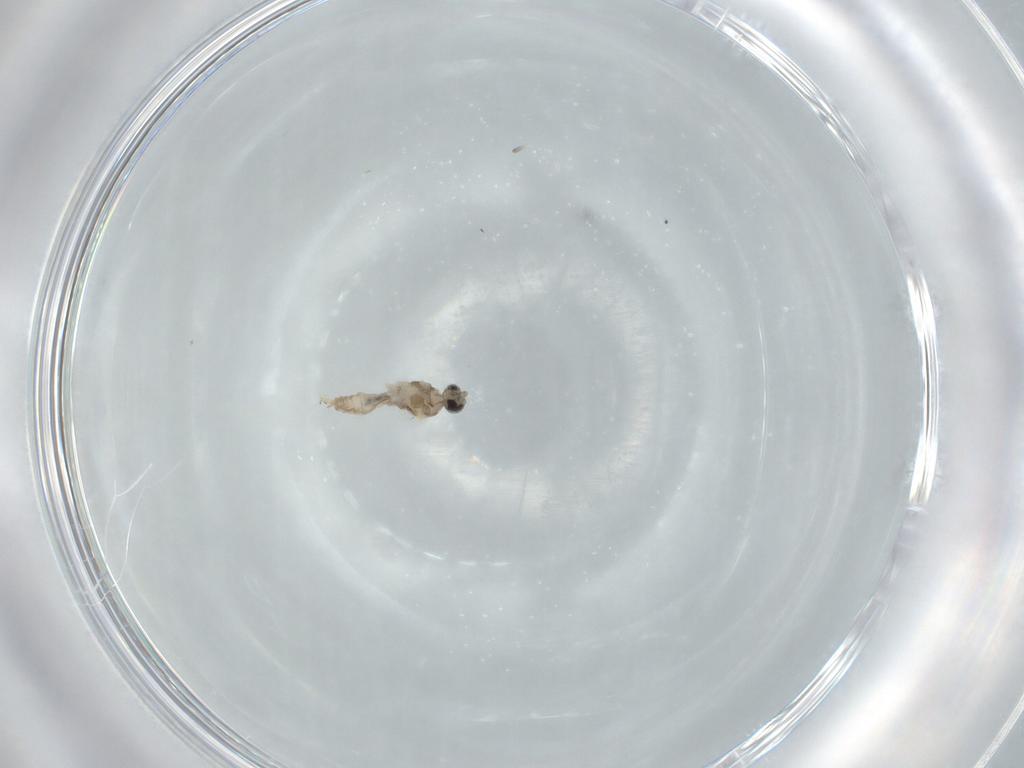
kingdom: Animalia
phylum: Arthropoda
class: Insecta
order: Diptera
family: Cecidomyiidae
